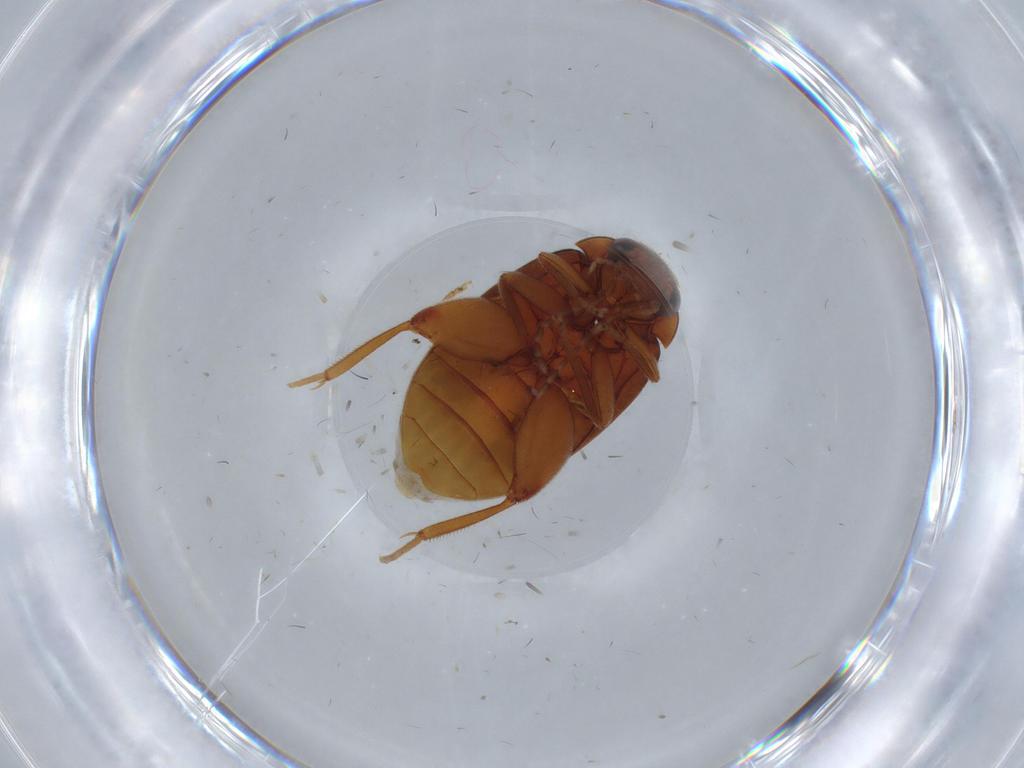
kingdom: Animalia
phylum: Arthropoda
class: Insecta
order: Coleoptera
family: Scirtidae
